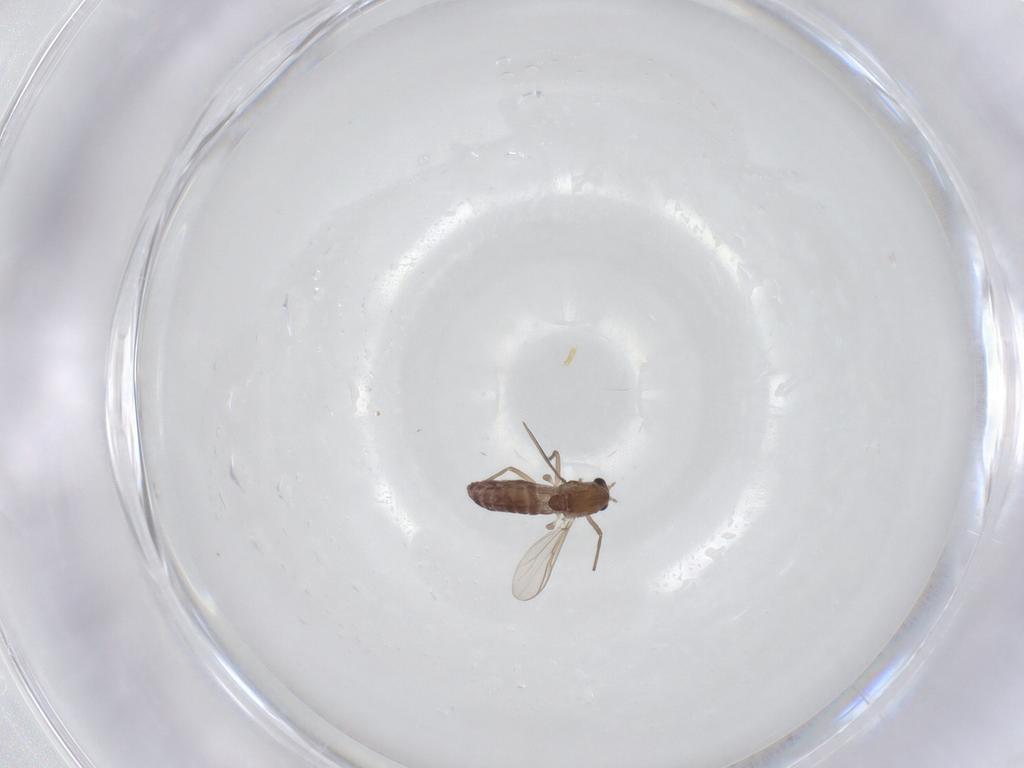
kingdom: Animalia
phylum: Arthropoda
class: Insecta
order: Diptera
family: Chironomidae
